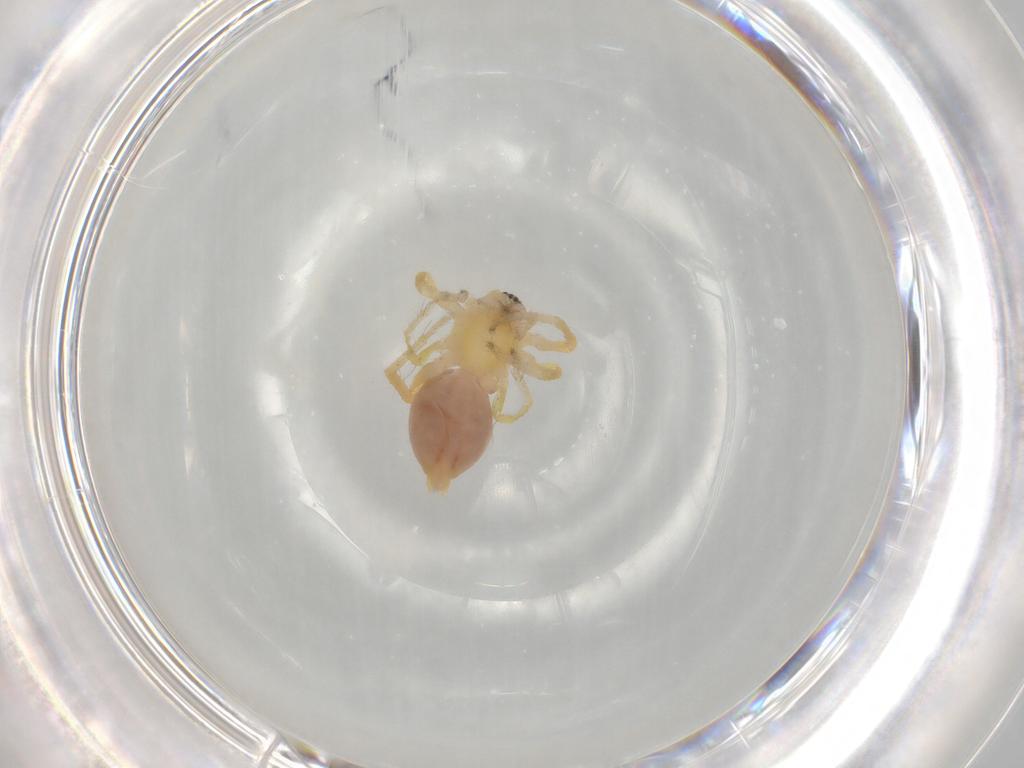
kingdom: Animalia
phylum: Arthropoda
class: Arachnida
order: Araneae
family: Anyphaenidae
